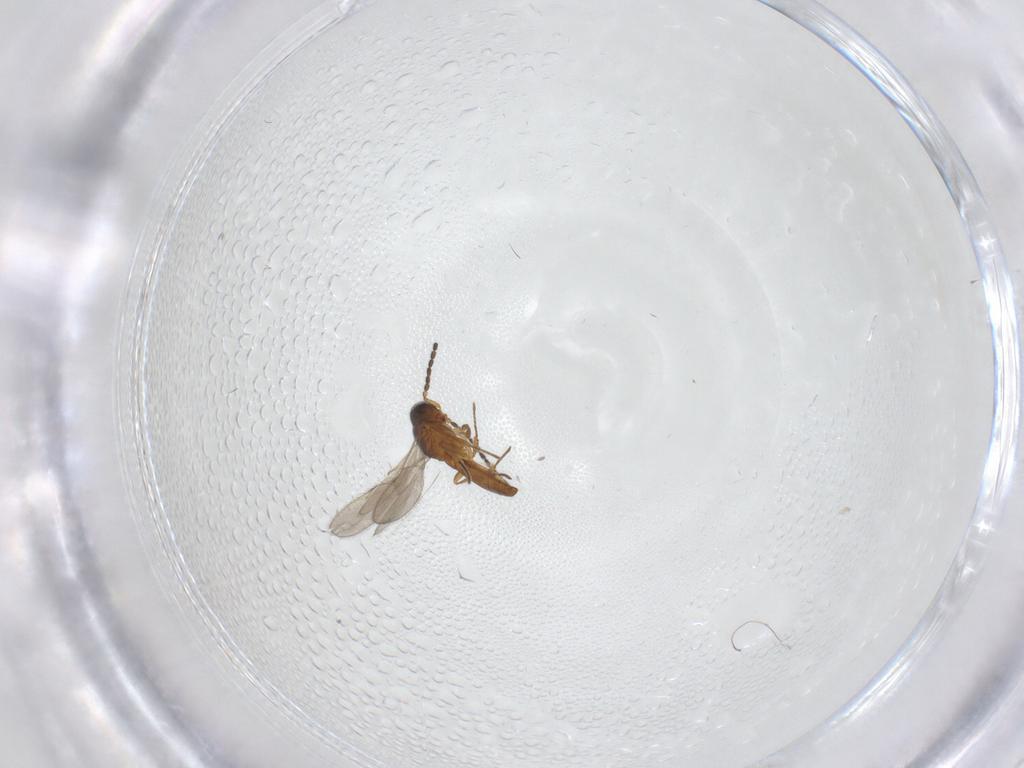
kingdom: Animalia
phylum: Arthropoda
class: Insecta
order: Hymenoptera
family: Scelionidae
